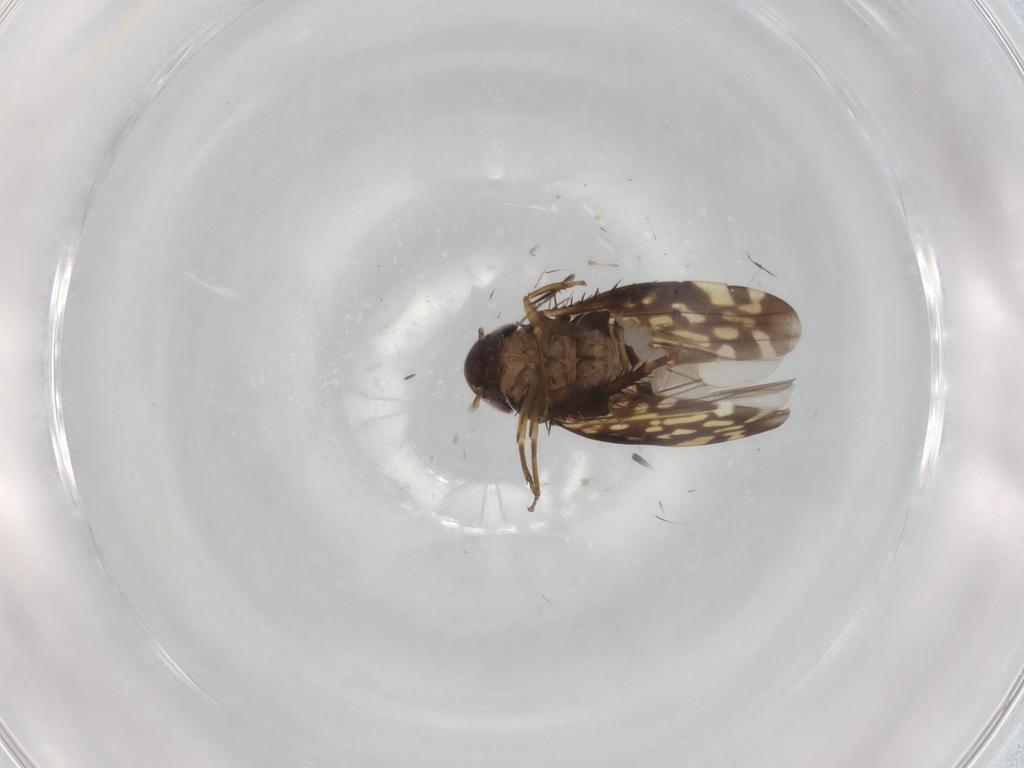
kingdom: Animalia
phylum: Arthropoda
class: Insecta
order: Hemiptera
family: Cicadellidae
